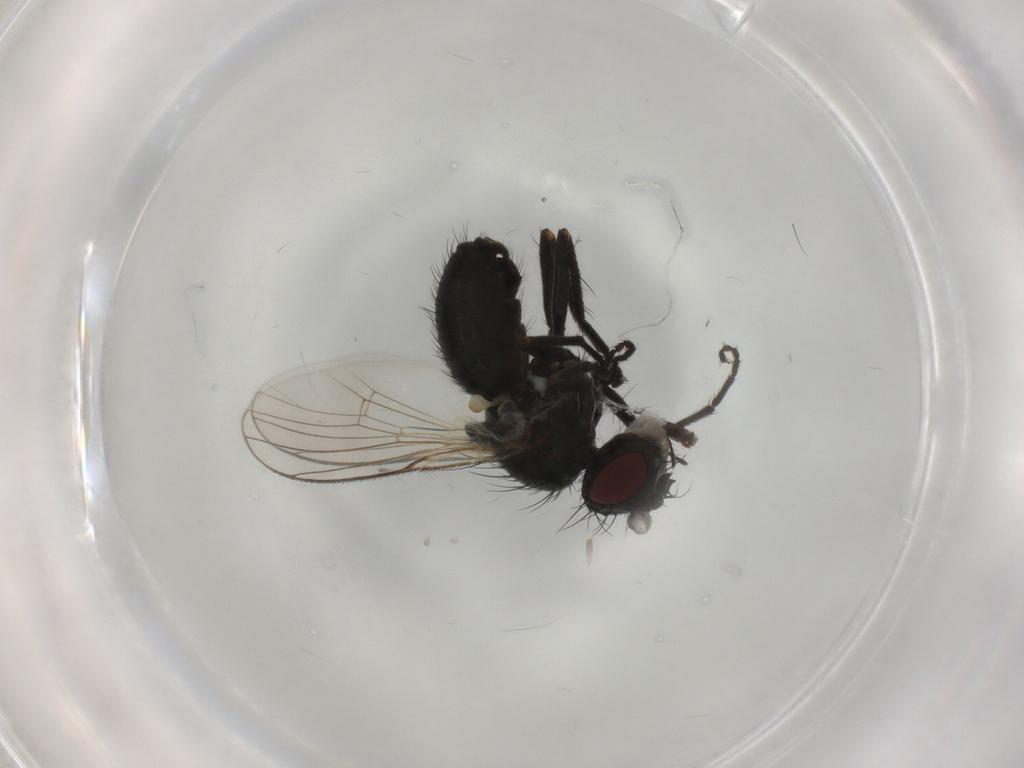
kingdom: Animalia
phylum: Arthropoda
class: Insecta
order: Diptera
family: Muscidae
